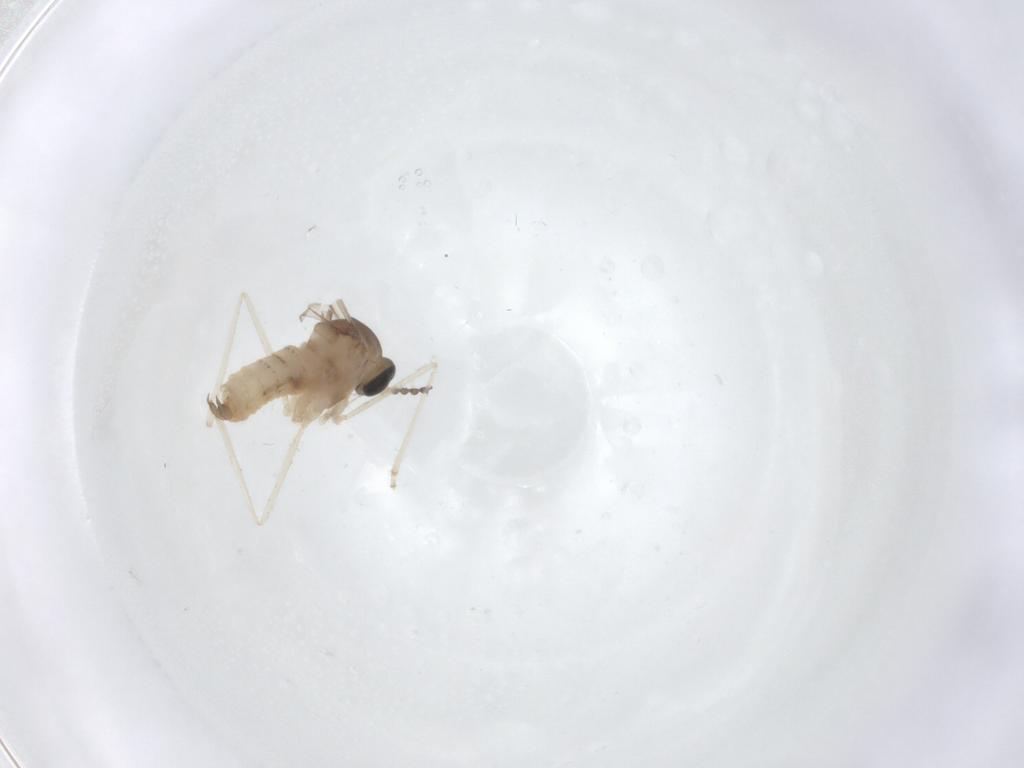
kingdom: Animalia
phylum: Arthropoda
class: Insecta
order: Diptera
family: Cecidomyiidae
